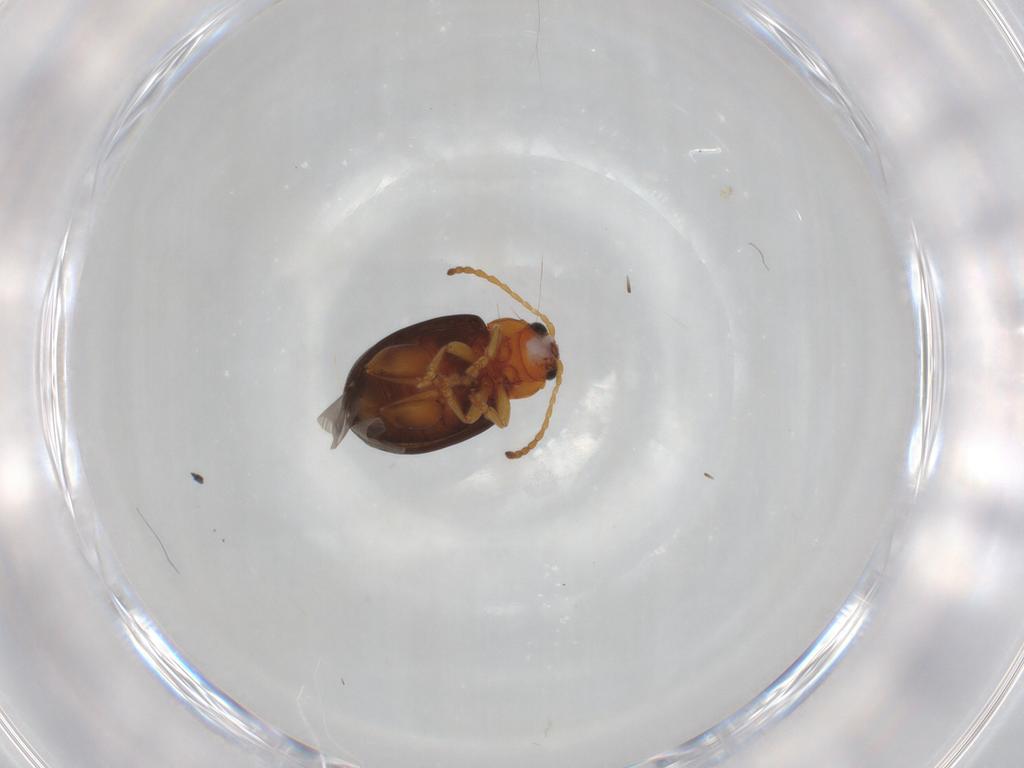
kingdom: Animalia
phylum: Arthropoda
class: Insecta
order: Coleoptera
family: Chrysomelidae
